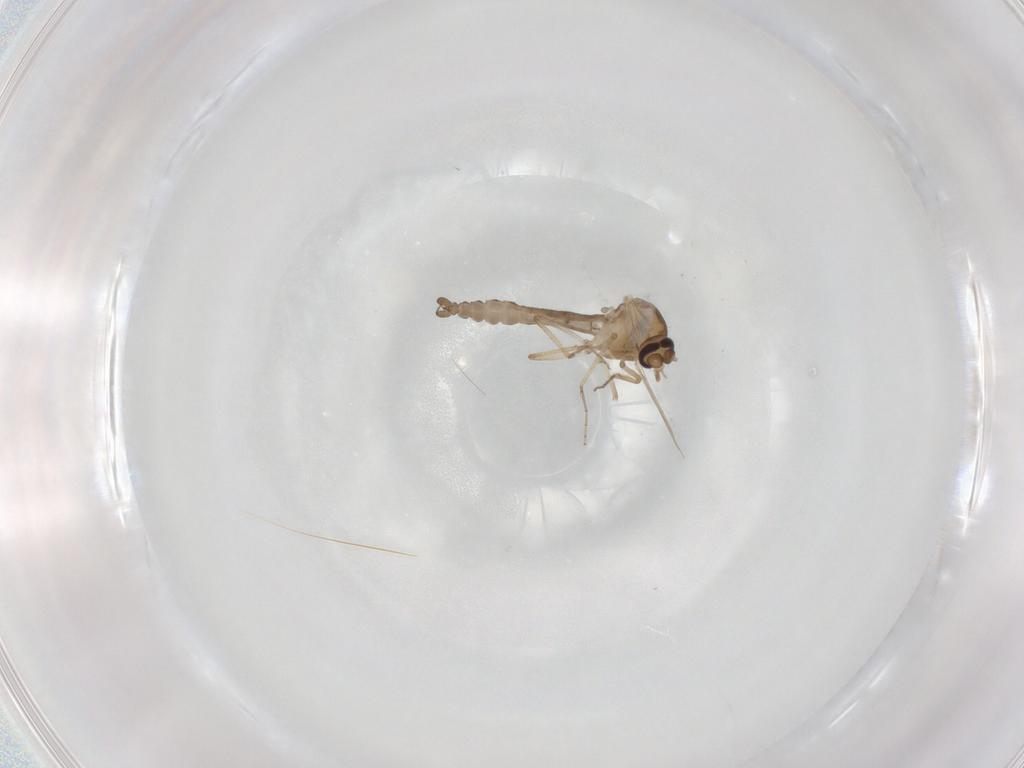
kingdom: Animalia
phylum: Arthropoda
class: Insecta
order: Diptera
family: Ceratopogonidae
